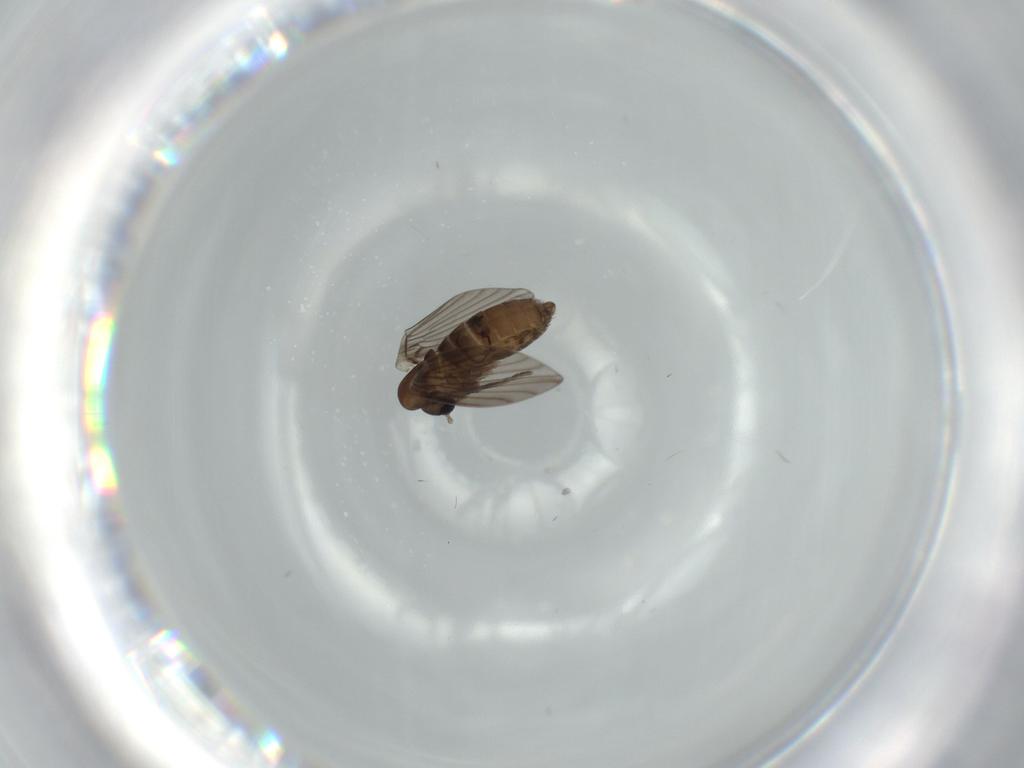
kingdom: Animalia
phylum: Arthropoda
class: Insecta
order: Diptera
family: Psychodidae
